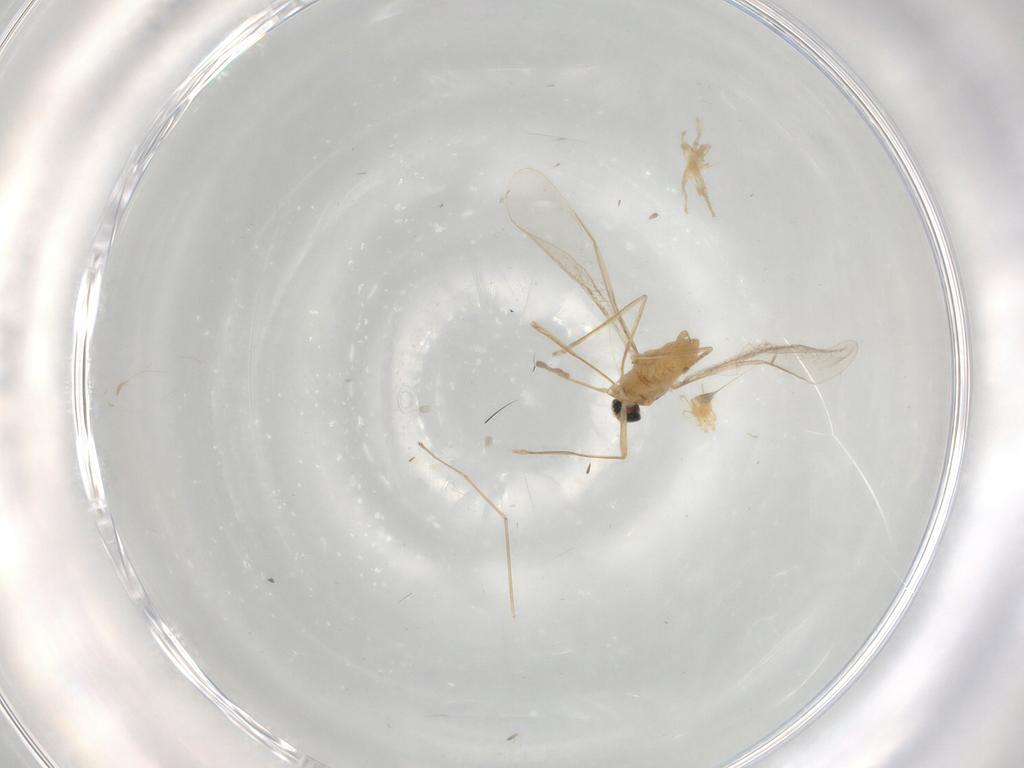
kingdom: Animalia
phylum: Arthropoda
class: Insecta
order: Diptera
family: Cecidomyiidae
